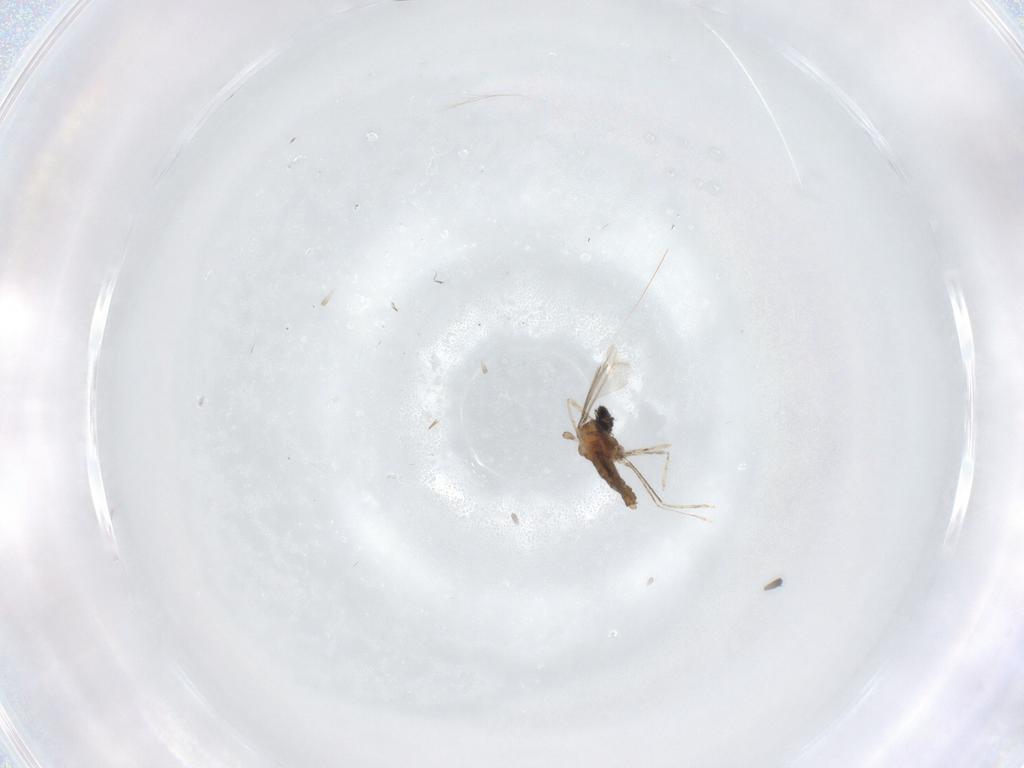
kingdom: Animalia
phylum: Arthropoda
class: Insecta
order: Diptera
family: Cecidomyiidae
